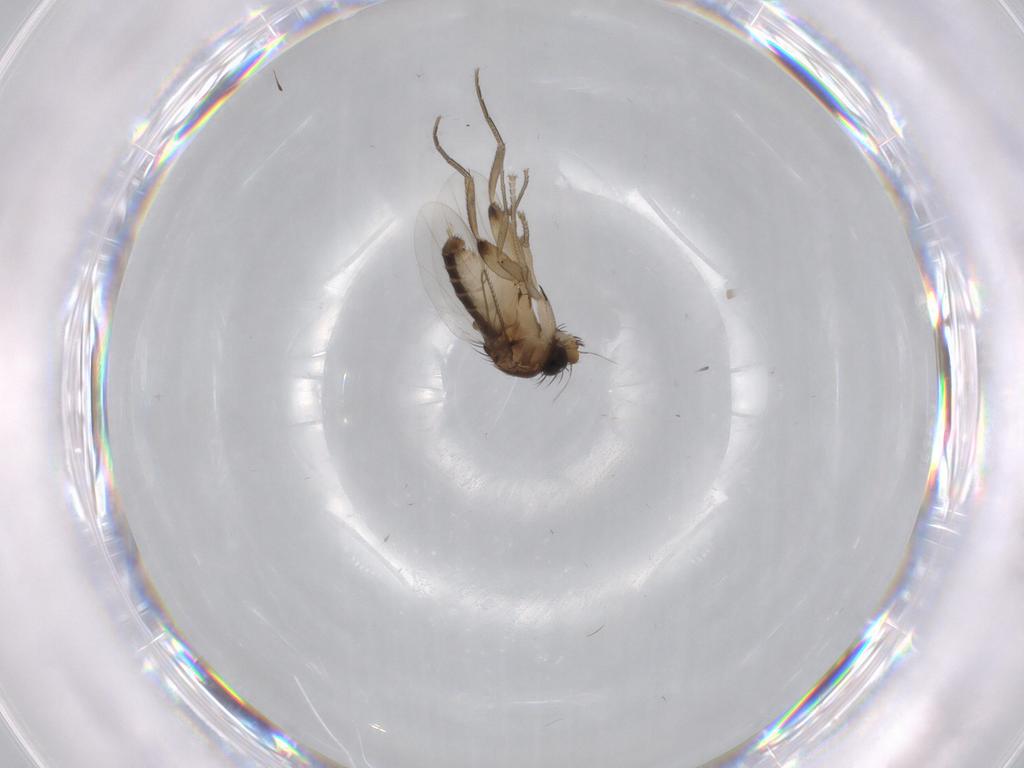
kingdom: Animalia
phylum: Arthropoda
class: Insecta
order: Diptera
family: Phoridae
